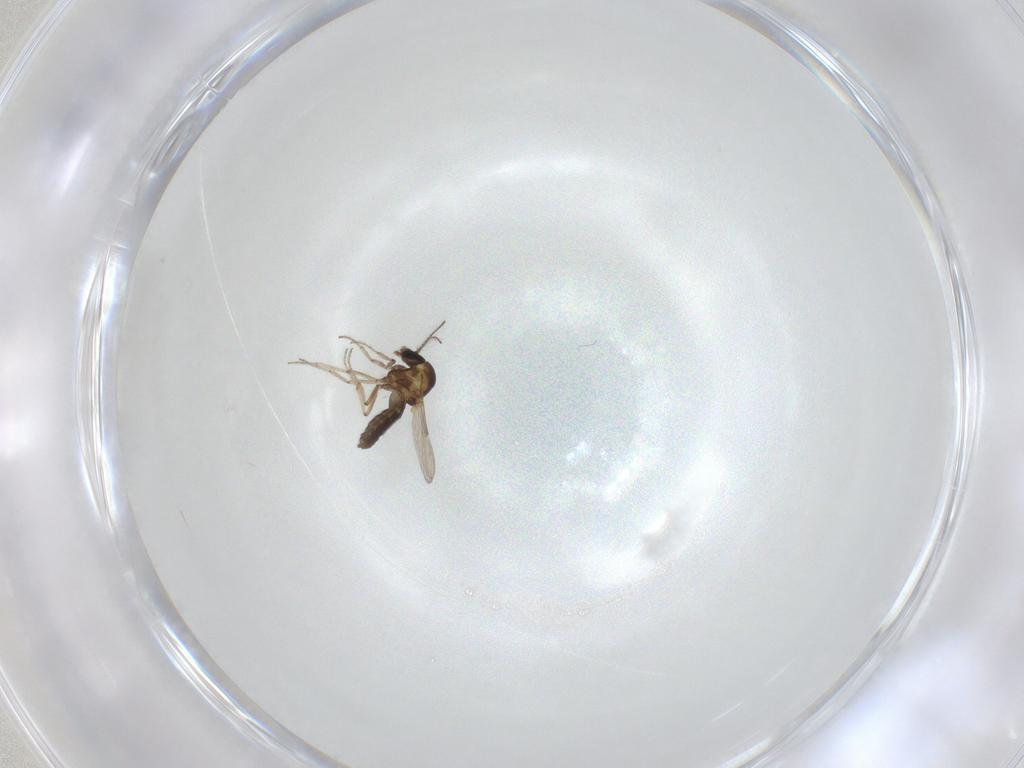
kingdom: Animalia
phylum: Arthropoda
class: Insecta
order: Diptera
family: Ceratopogonidae
